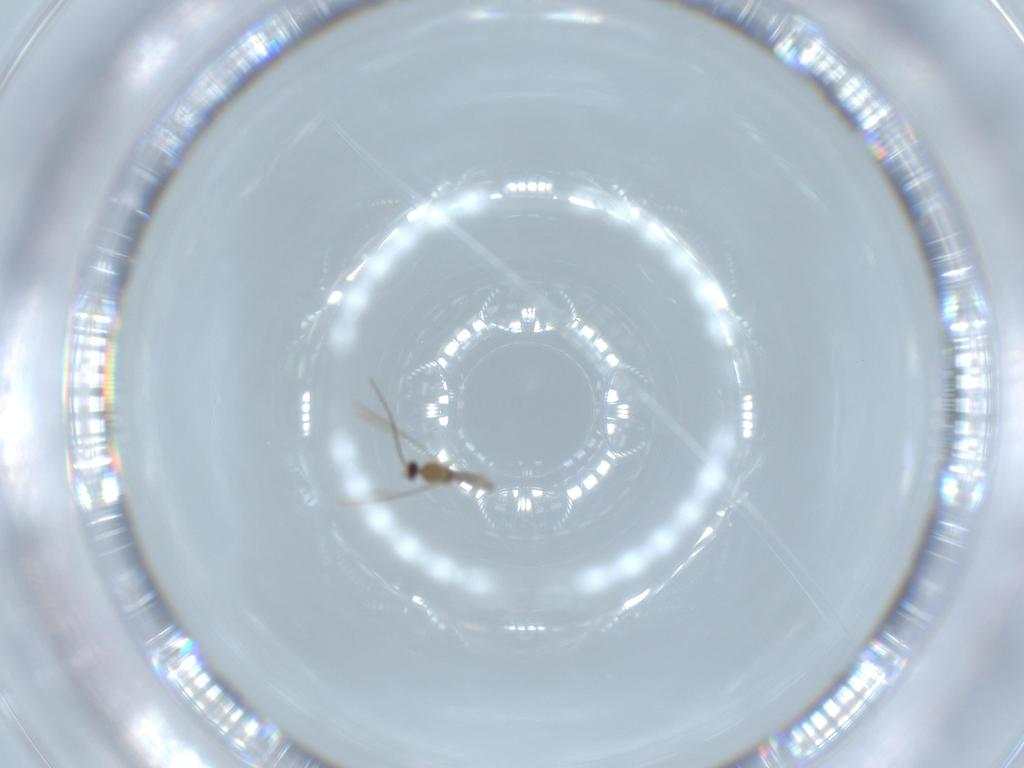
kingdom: Animalia
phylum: Arthropoda
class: Insecta
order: Diptera
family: Cecidomyiidae
